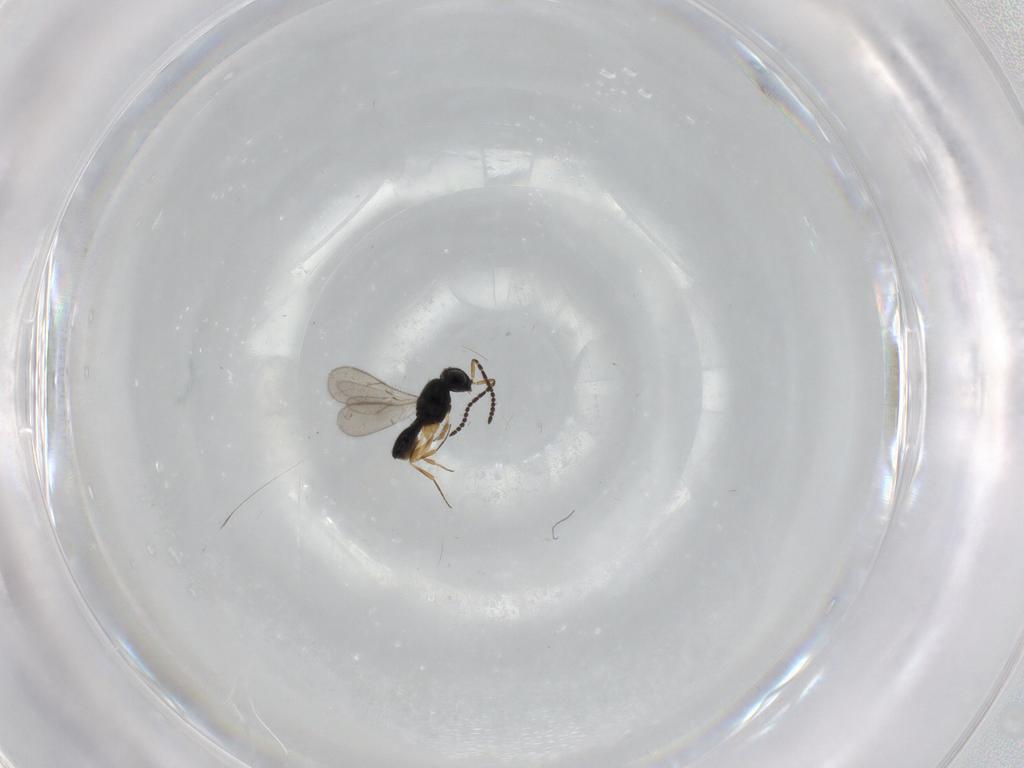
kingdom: Animalia
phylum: Arthropoda
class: Insecta
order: Hymenoptera
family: Scelionidae
